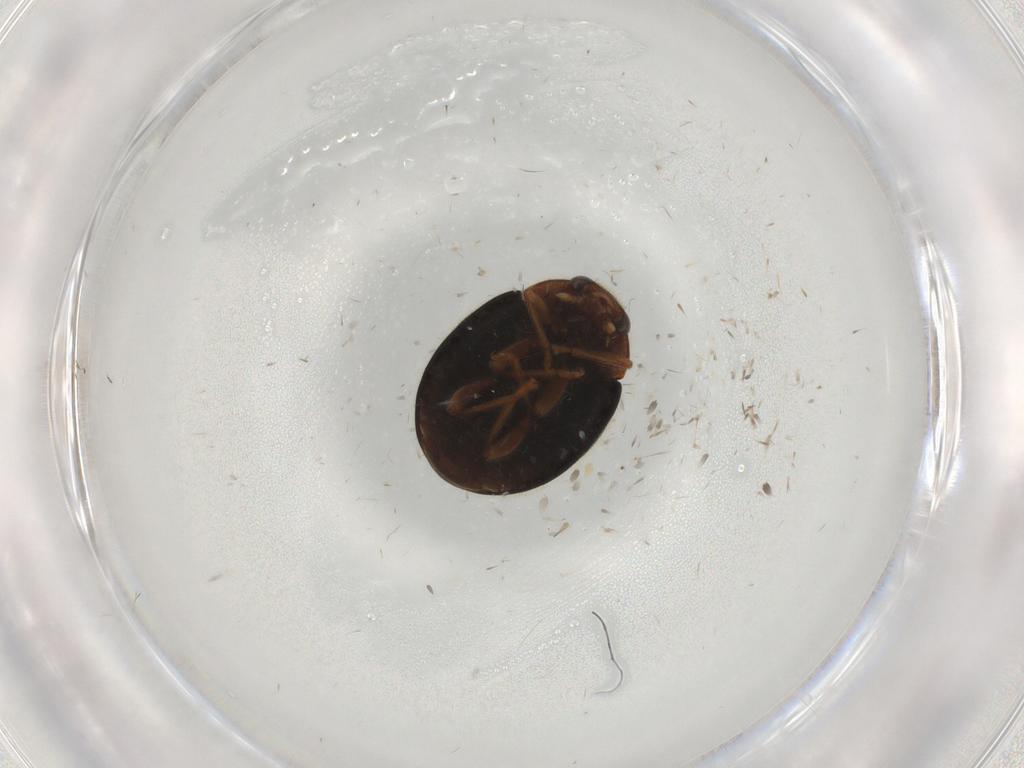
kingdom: Animalia
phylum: Arthropoda
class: Insecta
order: Coleoptera
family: Coccinellidae
